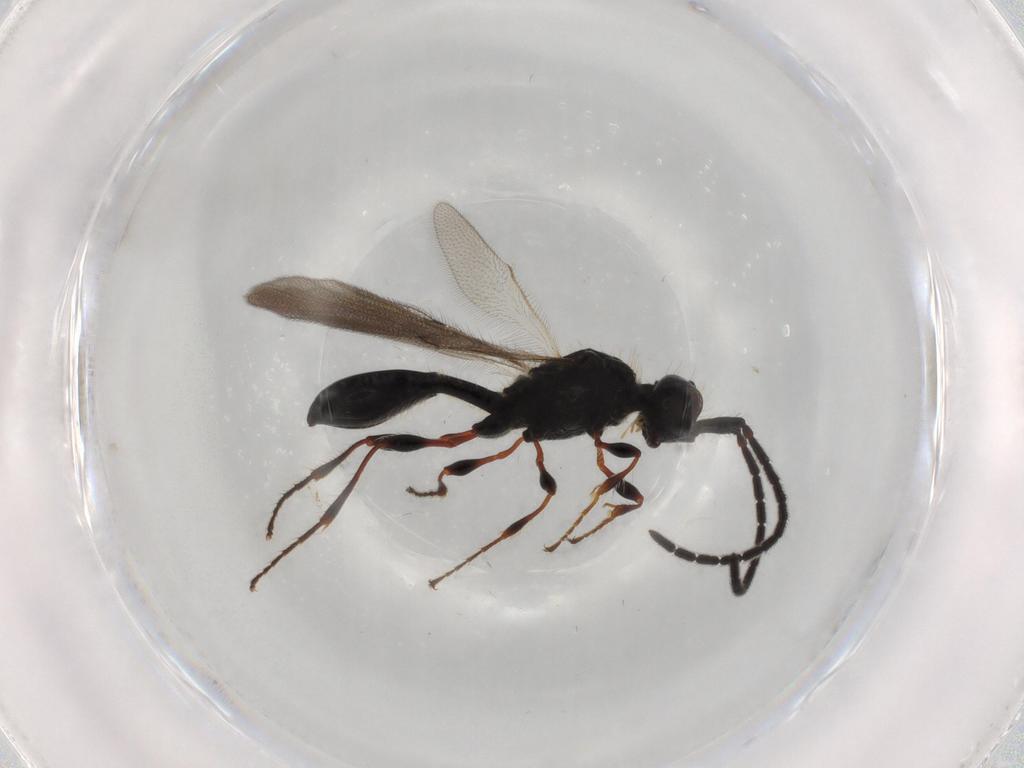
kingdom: Animalia
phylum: Arthropoda
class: Insecta
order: Hymenoptera
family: Diapriidae
